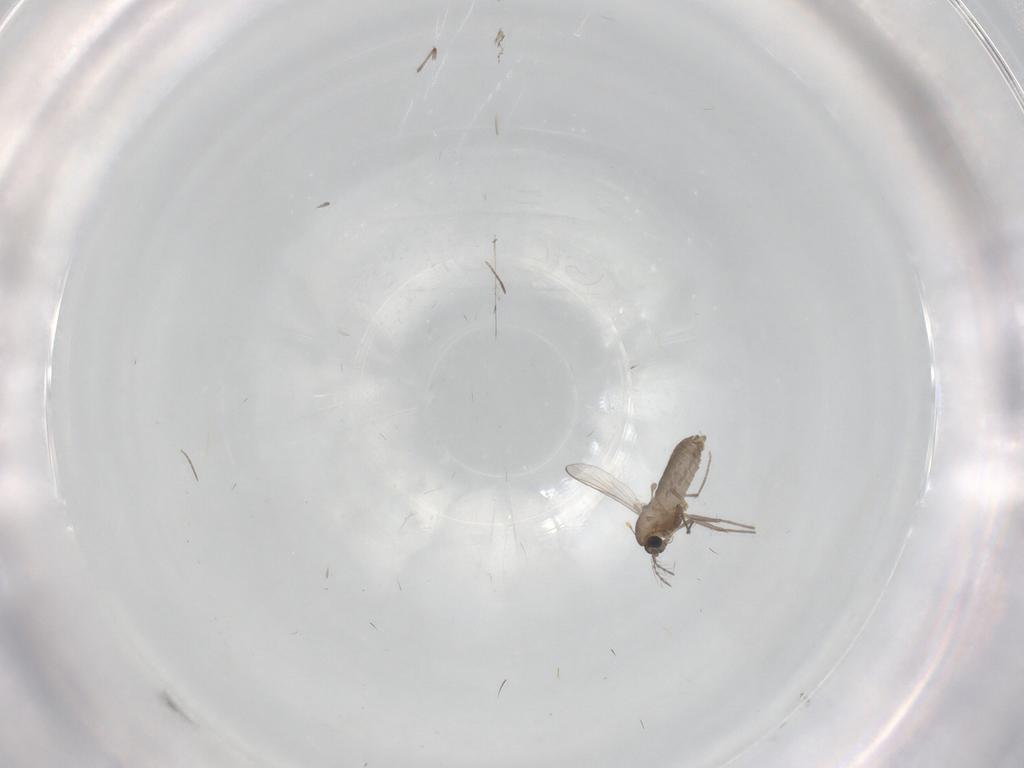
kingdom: Animalia
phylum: Arthropoda
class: Insecta
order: Diptera
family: Chironomidae
